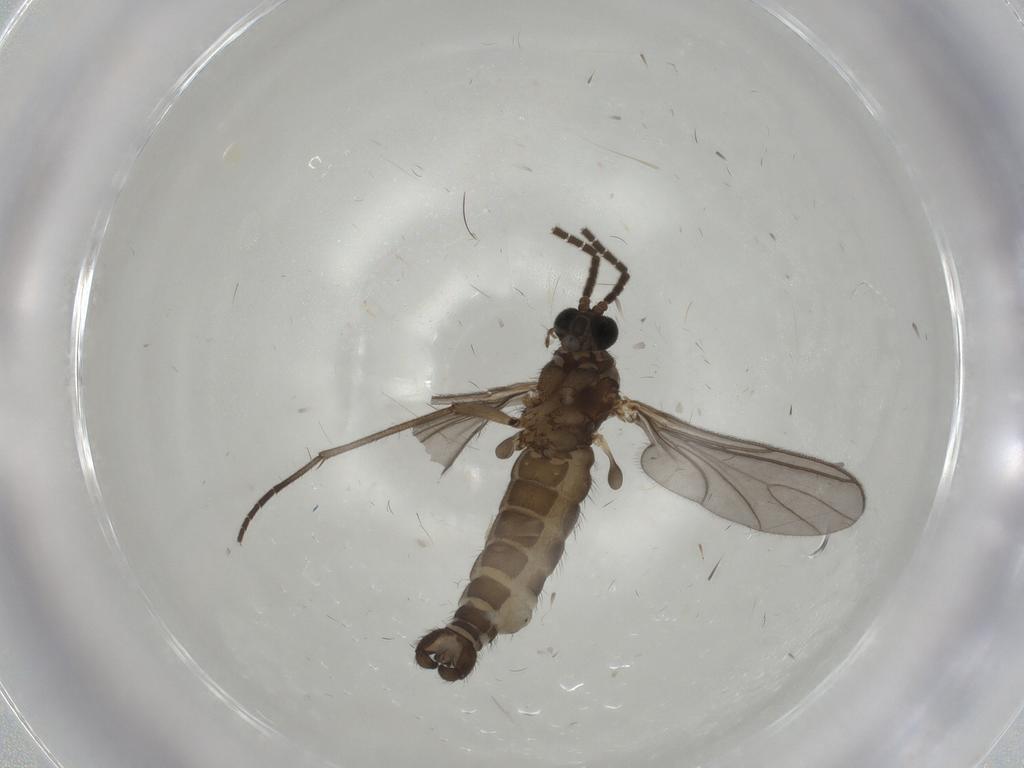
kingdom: Animalia
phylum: Arthropoda
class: Insecta
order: Diptera
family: Sciaridae
